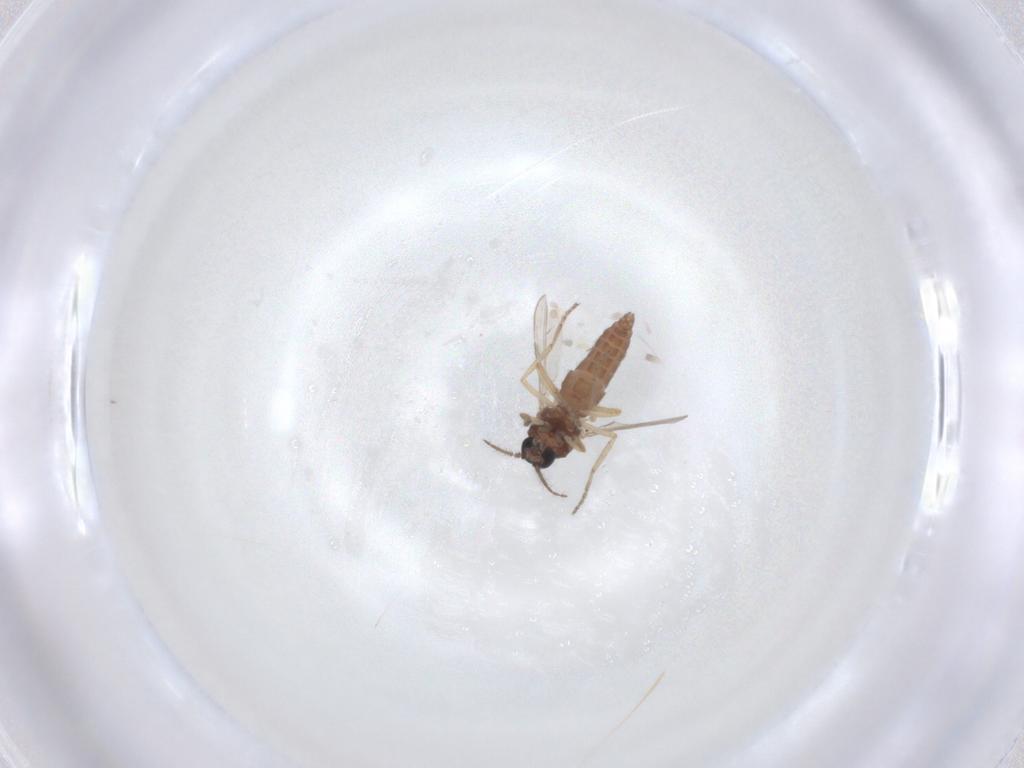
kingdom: Animalia
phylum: Arthropoda
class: Insecta
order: Diptera
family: Ceratopogonidae
